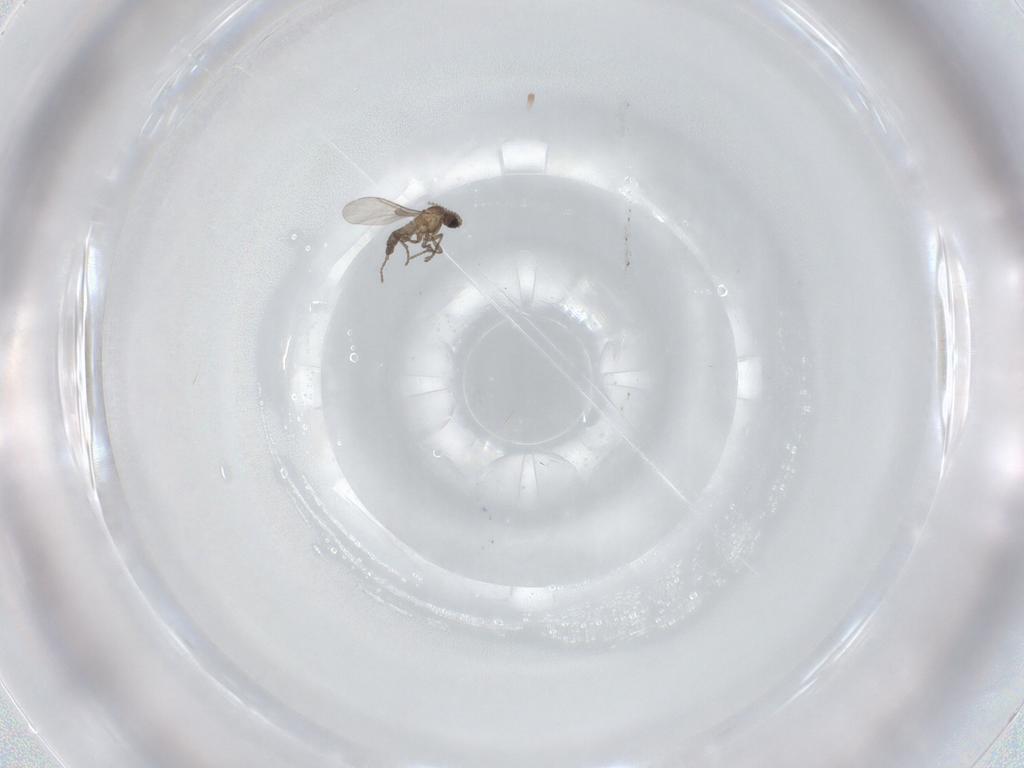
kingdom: Animalia
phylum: Arthropoda
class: Insecta
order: Diptera
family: Ceratopogonidae
